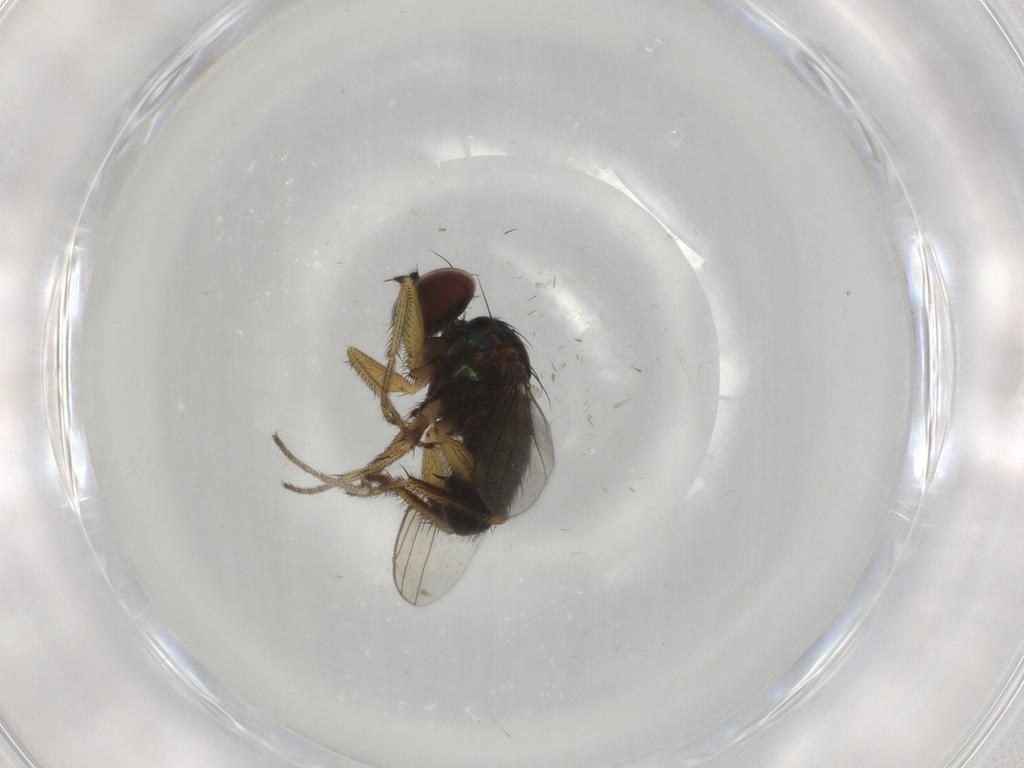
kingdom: Animalia
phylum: Arthropoda
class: Insecta
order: Diptera
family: Dolichopodidae
